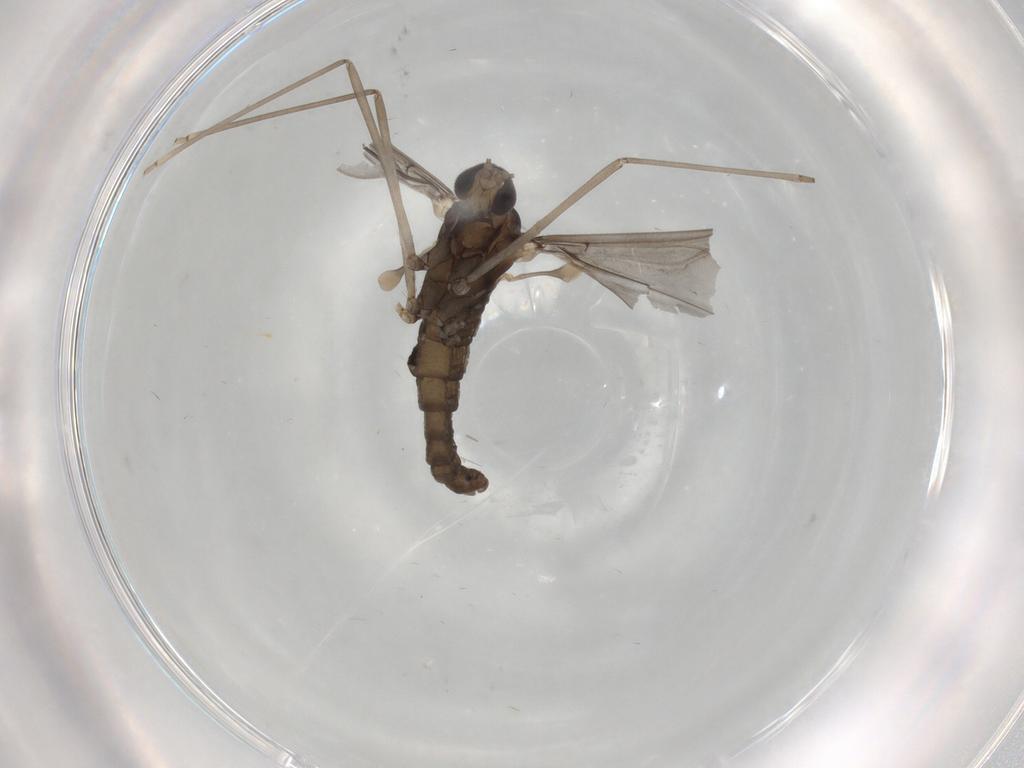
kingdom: Animalia
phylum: Arthropoda
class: Insecta
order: Diptera
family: Cecidomyiidae
